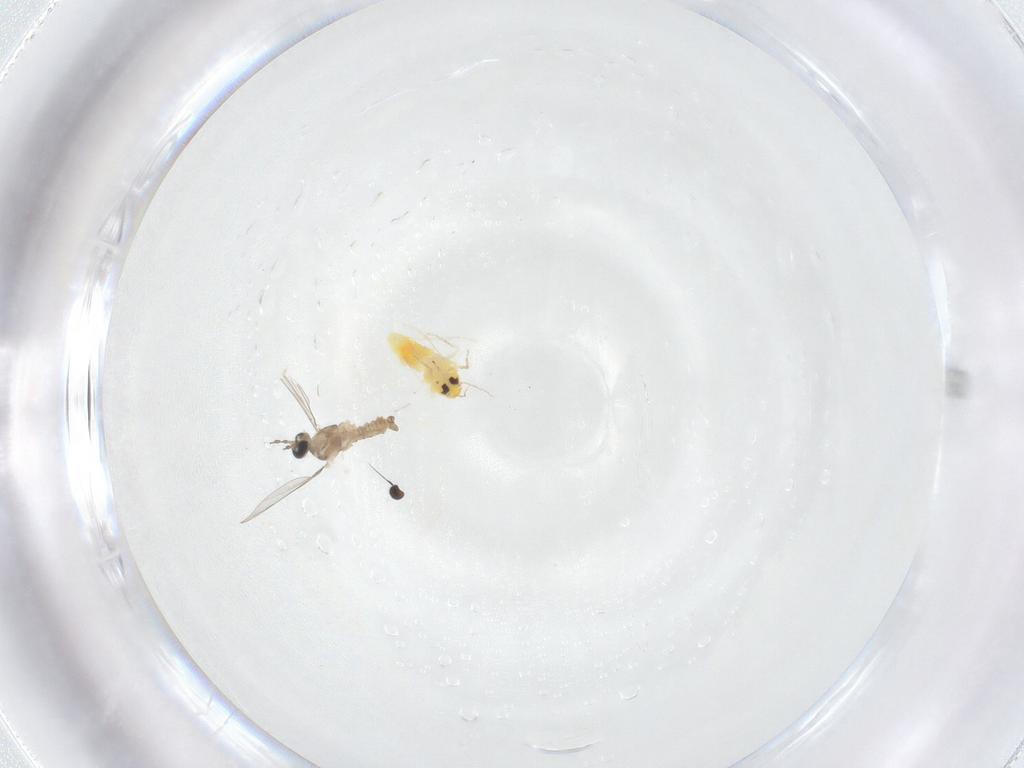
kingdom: Animalia
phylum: Arthropoda
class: Insecta
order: Diptera
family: Cecidomyiidae
